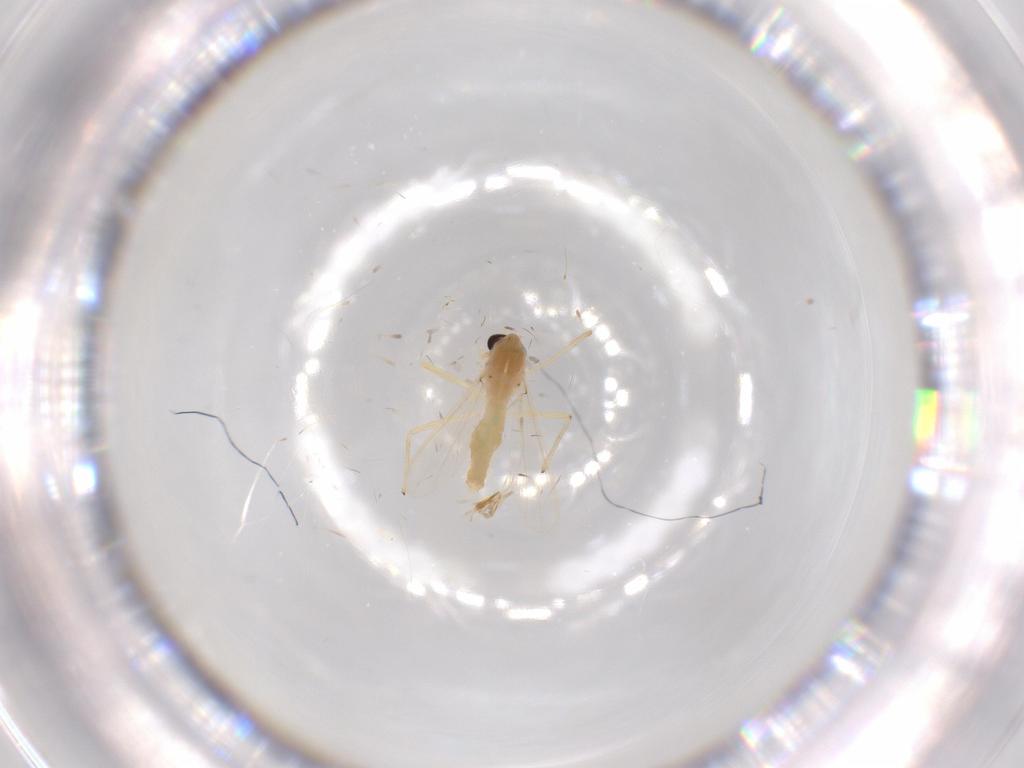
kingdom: Animalia
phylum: Arthropoda
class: Insecta
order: Diptera
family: Chironomidae
